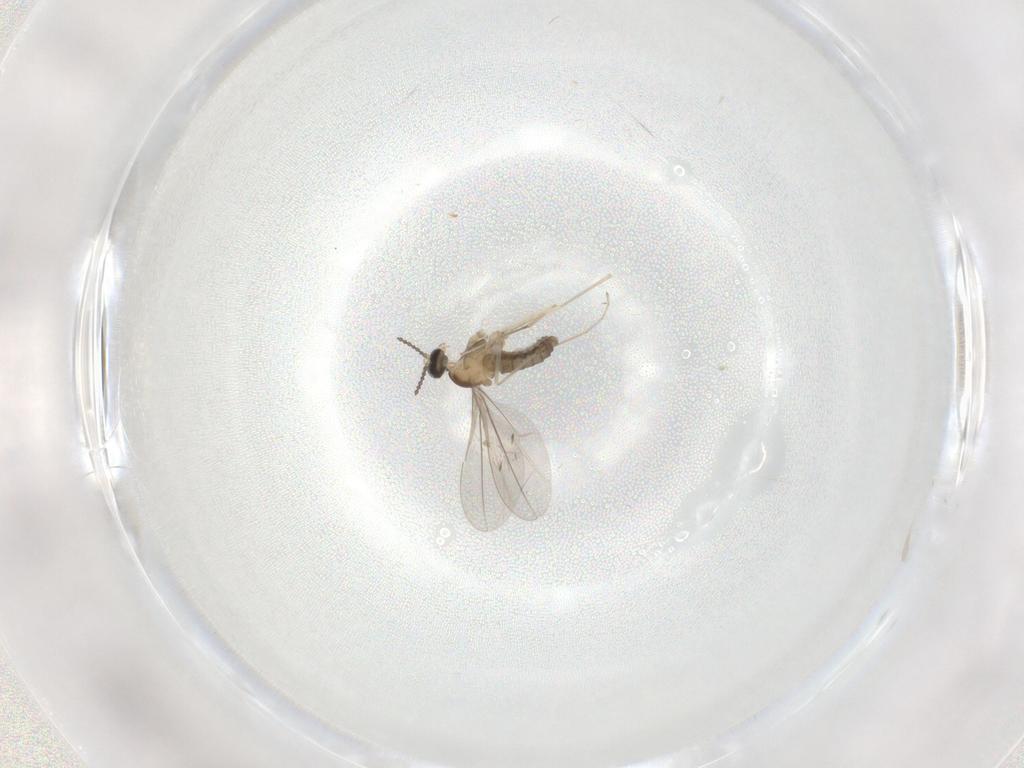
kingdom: Animalia
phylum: Arthropoda
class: Insecta
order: Diptera
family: Cecidomyiidae
